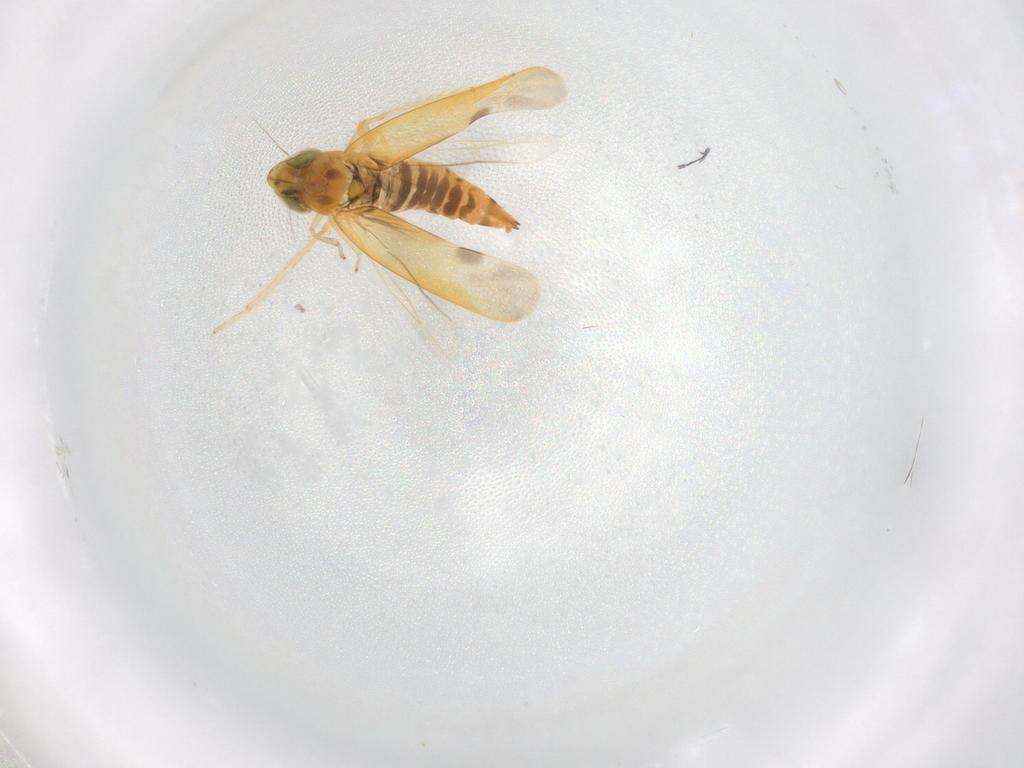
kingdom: Animalia
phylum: Arthropoda
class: Insecta
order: Hemiptera
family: Cicadellidae
